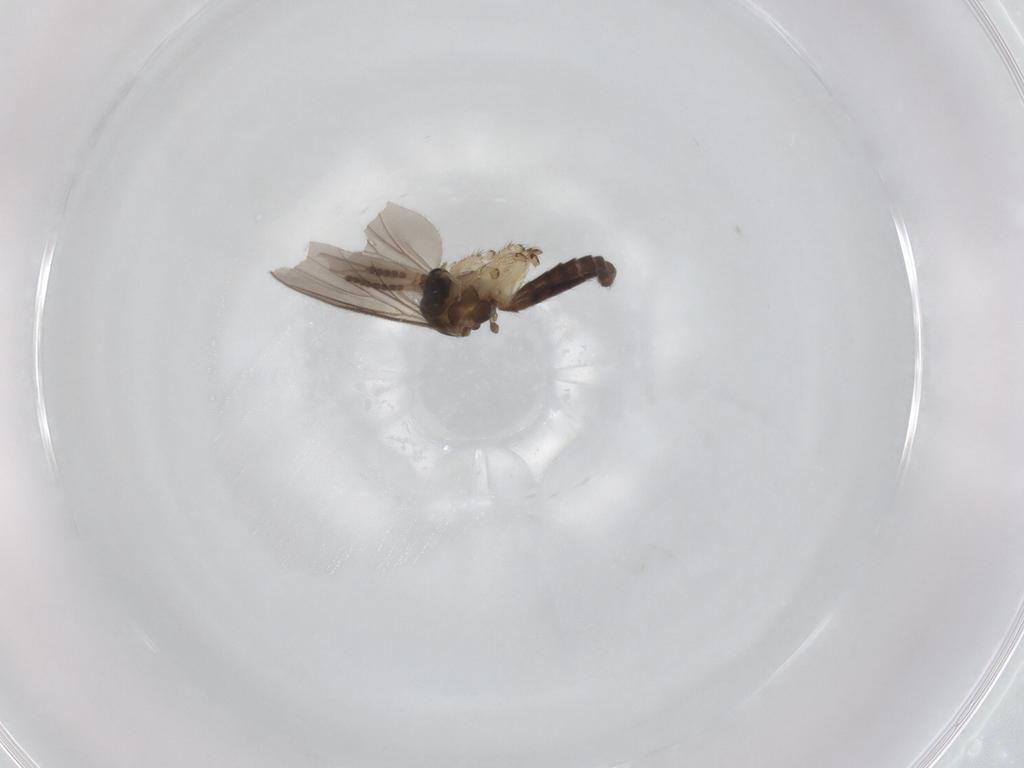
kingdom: Animalia
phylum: Arthropoda
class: Insecta
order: Diptera
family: Mycetophilidae
